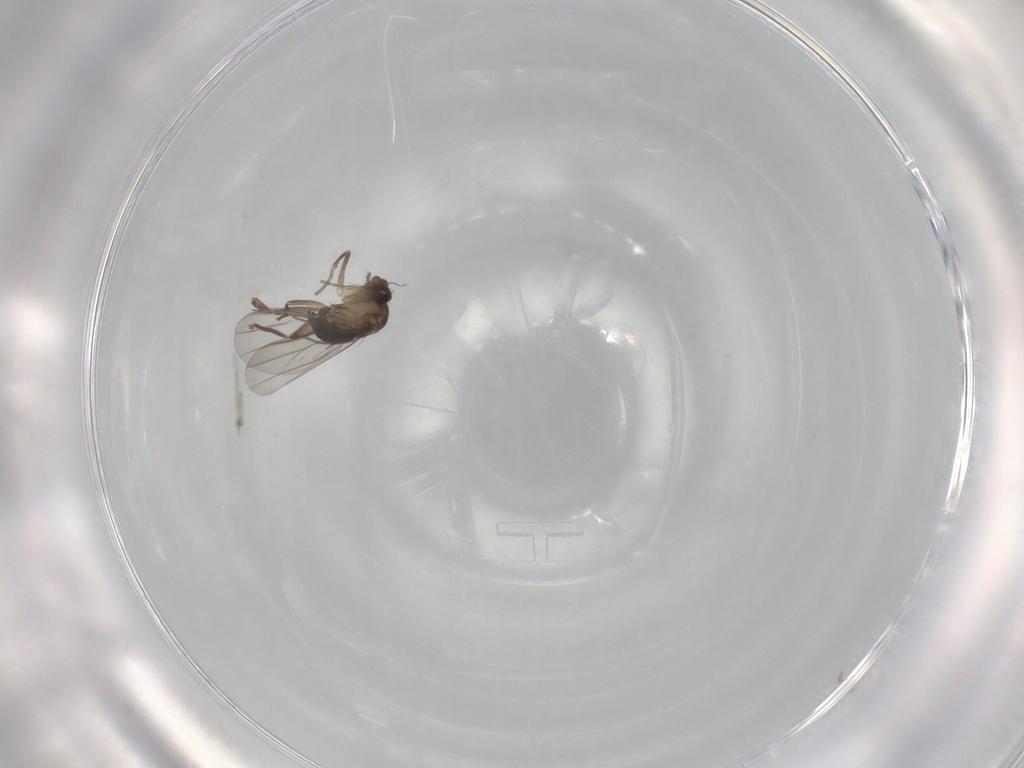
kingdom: Animalia
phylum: Arthropoda
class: Insecta
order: Diptera
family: Phoridae
